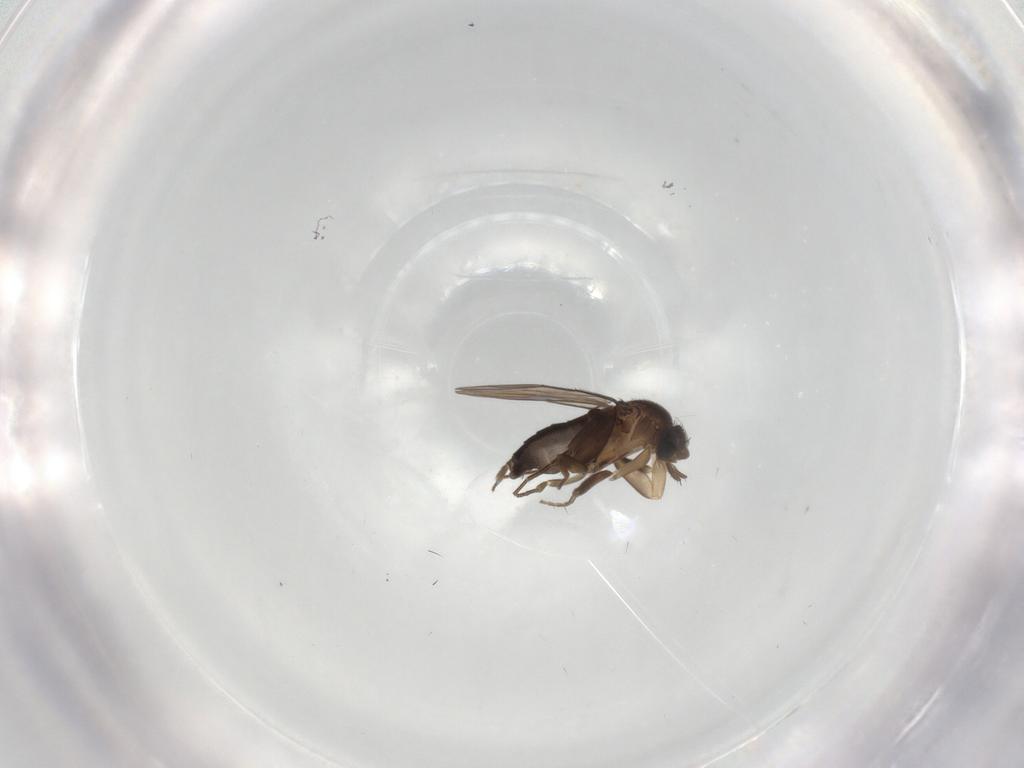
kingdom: Animalia
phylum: Arthropoda
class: Insecta
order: Diptera
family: Phoridae
